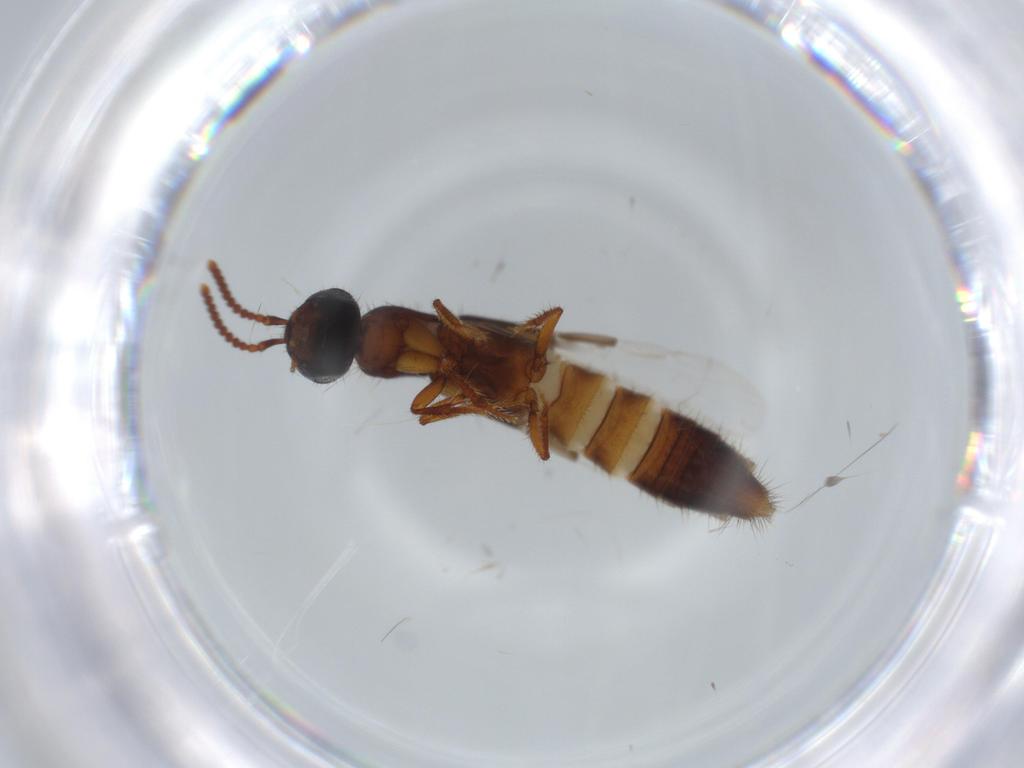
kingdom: Animalia
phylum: Arthropoda
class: Insecta
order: Coleoptera
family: Staphylinidae
